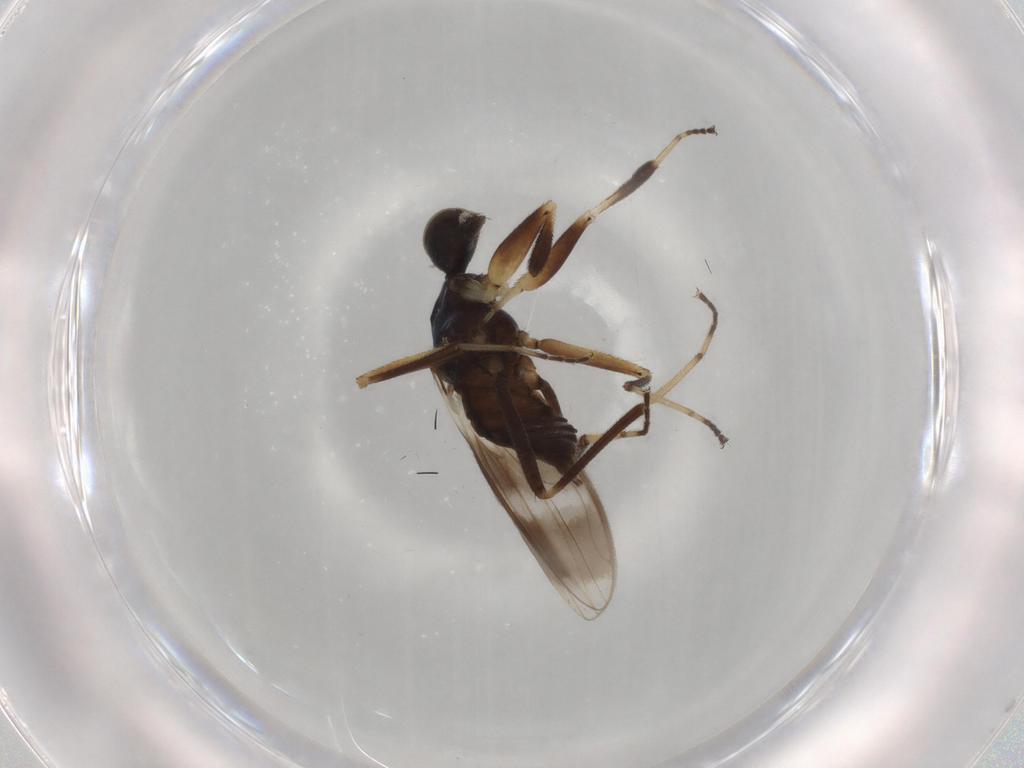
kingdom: Animalia
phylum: Arthropoda
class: Insecta
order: Diptera
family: Hybotidae
